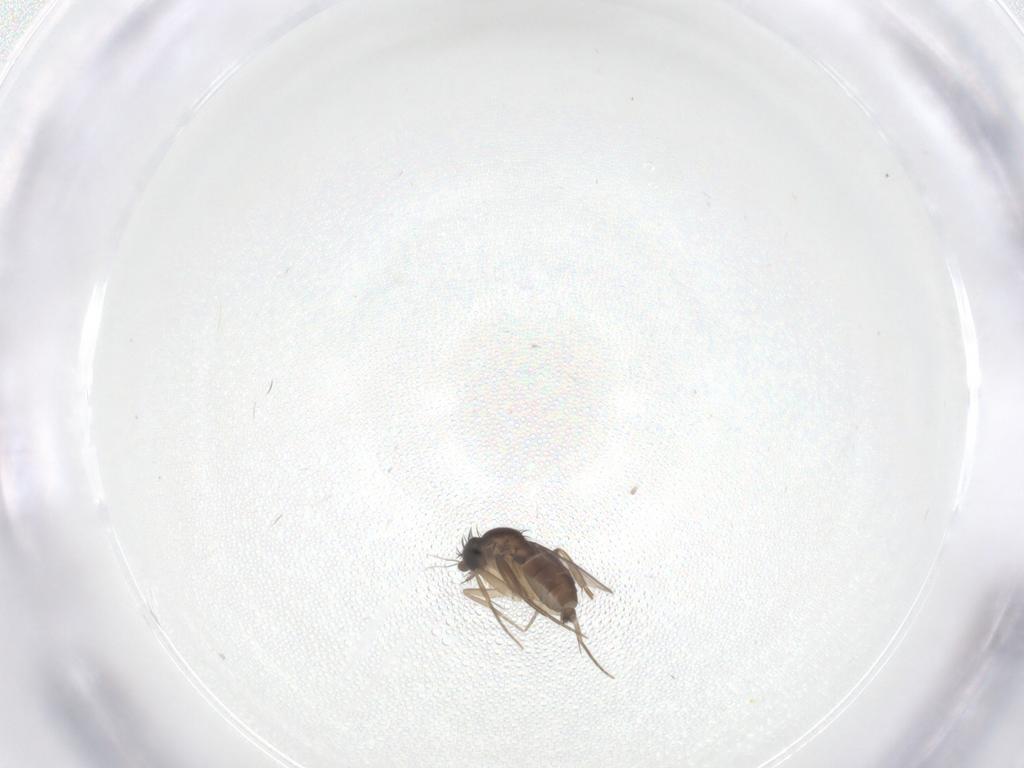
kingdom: Animalia
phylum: Arthropoda
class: Insecta
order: Diptera
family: Phoridae
